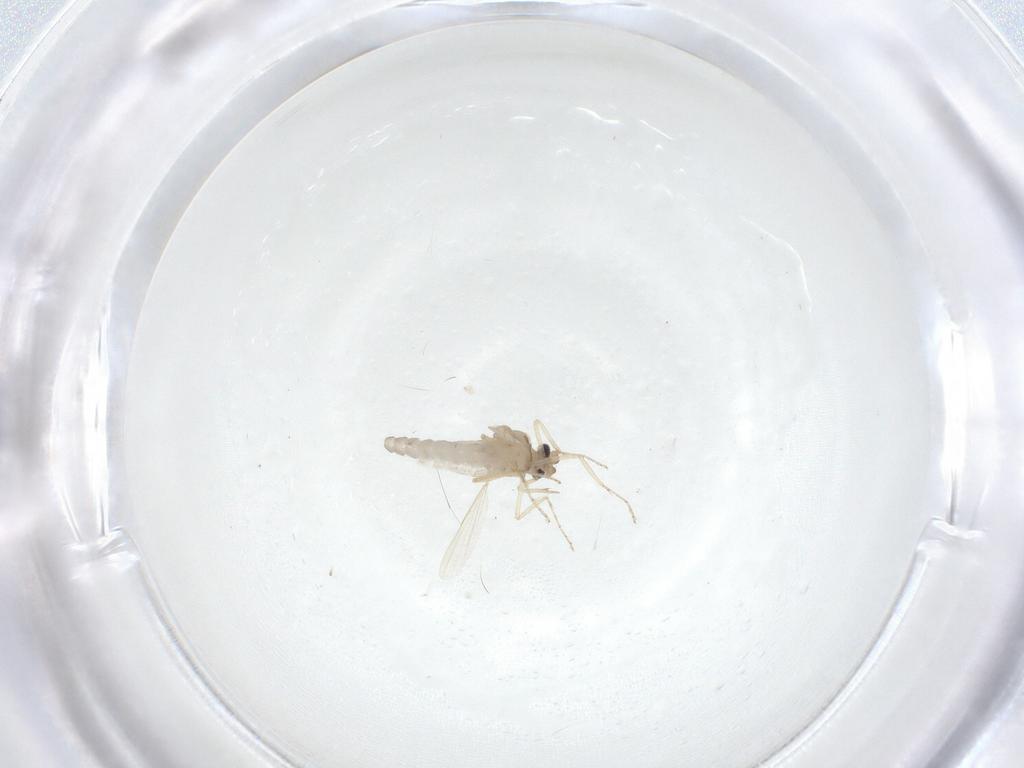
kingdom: Animalia
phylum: Arthropoda
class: Insecta
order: Diptera
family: Ceratopogonidae
